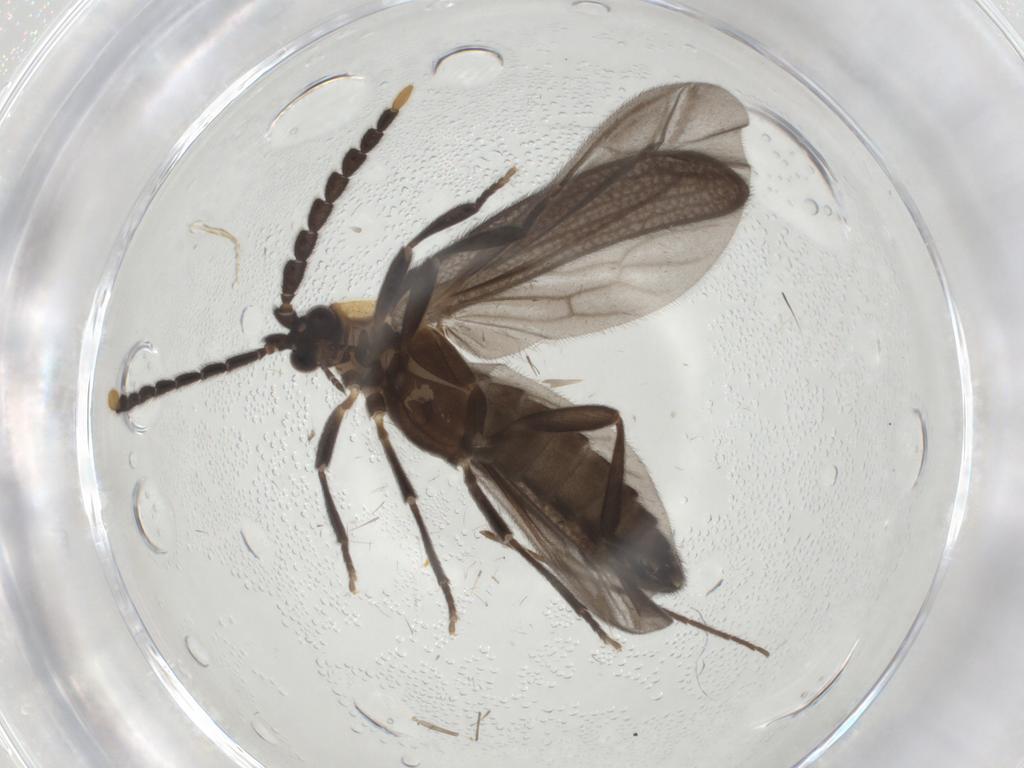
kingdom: Animalia
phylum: Arthropoda
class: Insecta
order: Coleoptera
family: Lycidae
